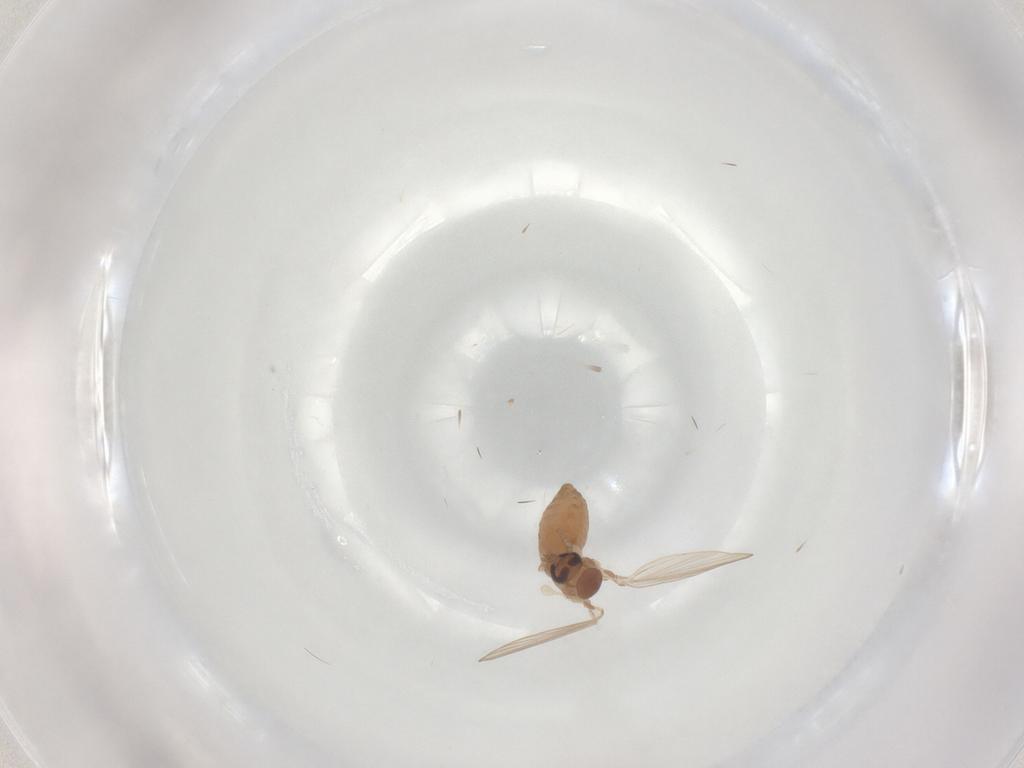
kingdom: Animalia
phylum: Arthropoda
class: Insecta
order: Diptera
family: Psychodidae
